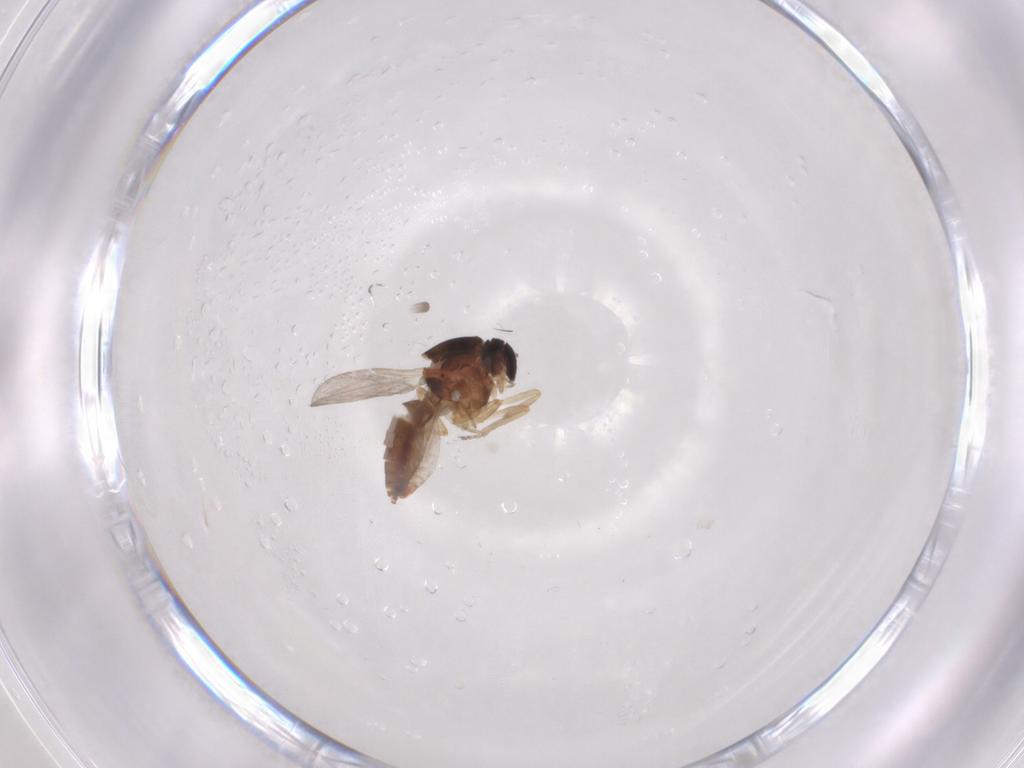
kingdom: Animalia
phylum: Arthropoda
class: Insecta
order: Diptera
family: Ceratopogonidae
